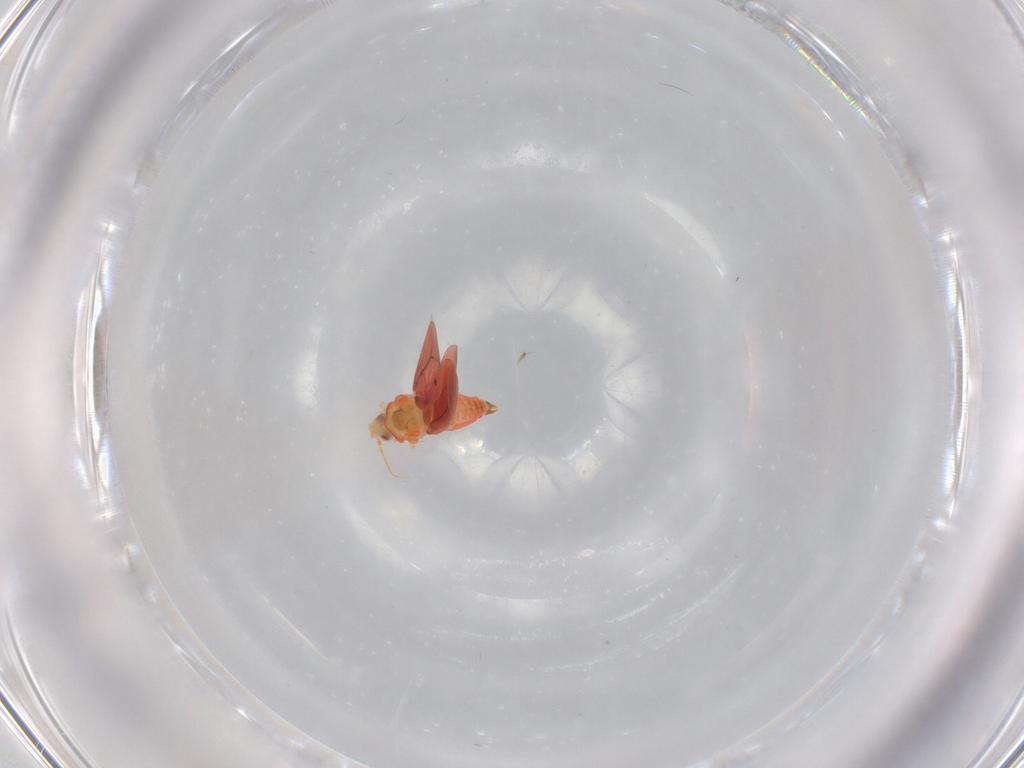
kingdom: Animalia
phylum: Arthropoda
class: Insecta
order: Hemiptera
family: Aleyrodidae
